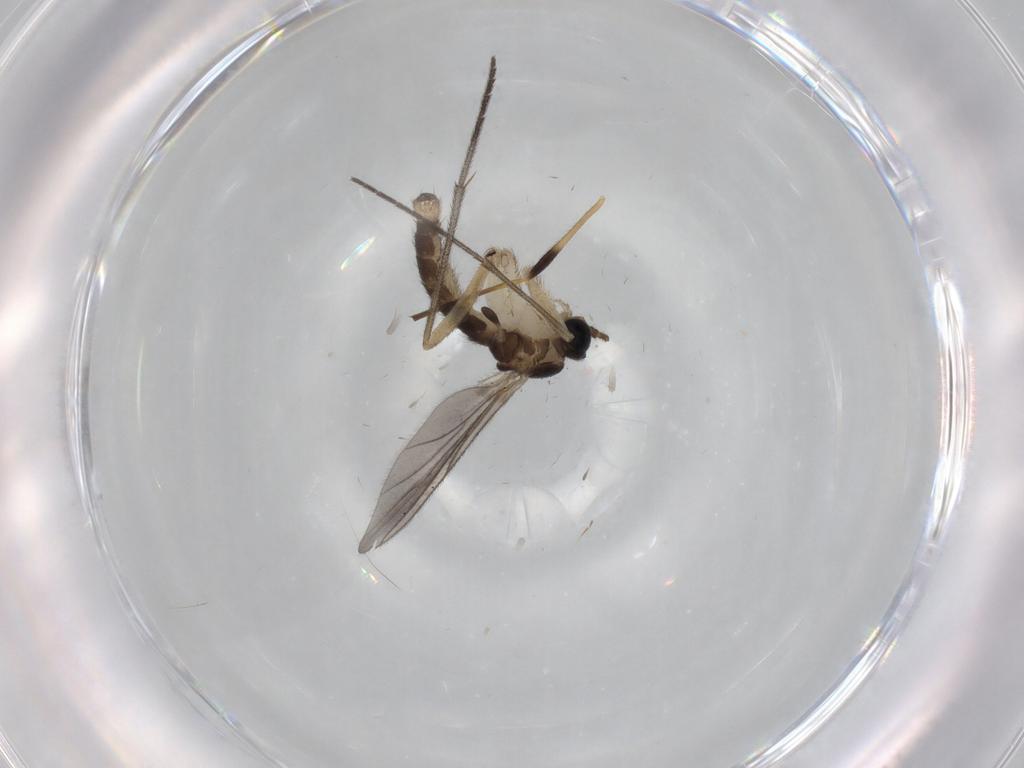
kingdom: Animalia
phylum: Arthropoda
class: Insecta
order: Diptera
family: Sciaridae
